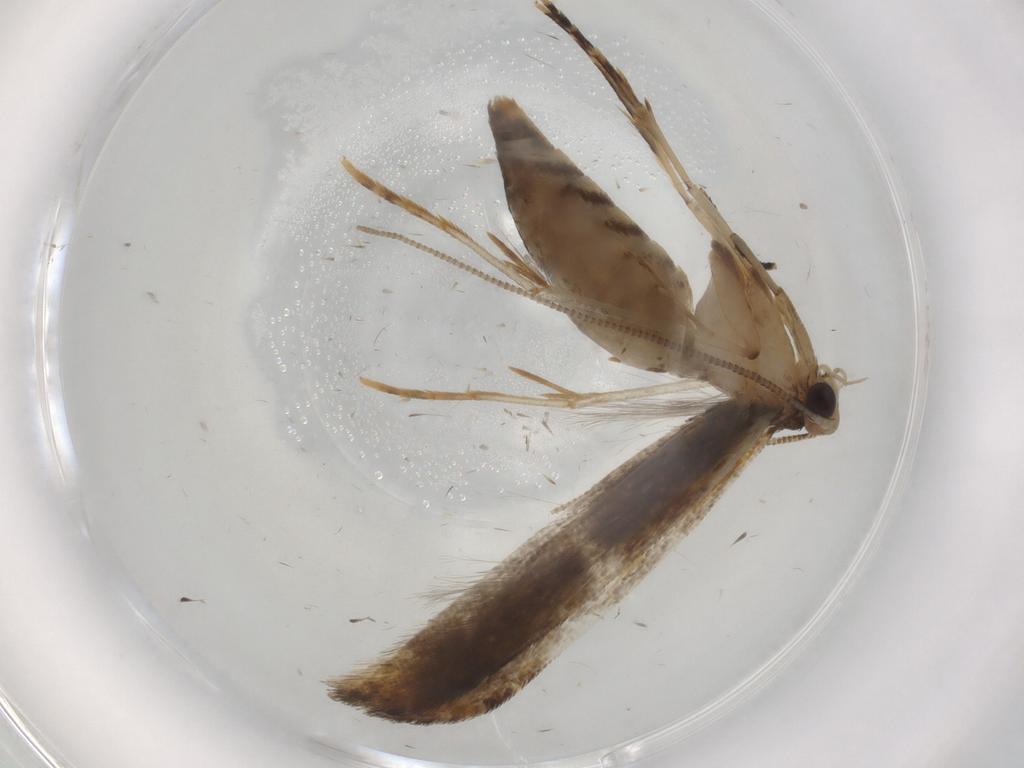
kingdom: Animalia
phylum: Arthropoda
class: Insecta
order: Lepidoptera
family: Tineidae
